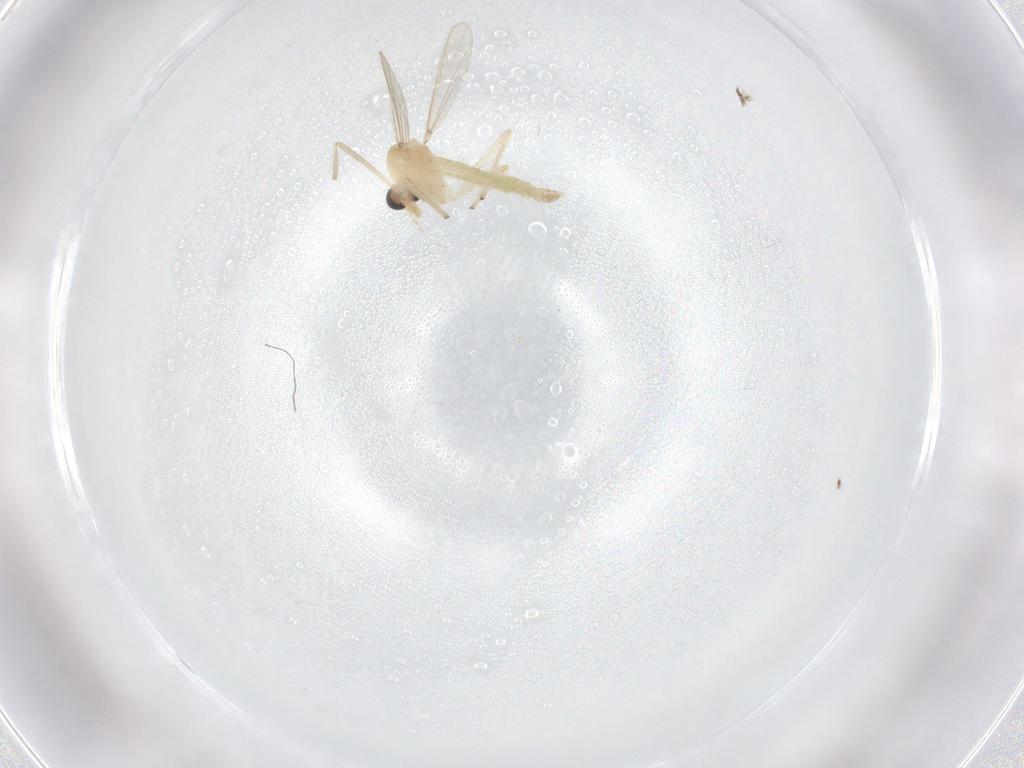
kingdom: Animalia
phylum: Arthropoda
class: Insecta
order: Diptera
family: Chironomidae
